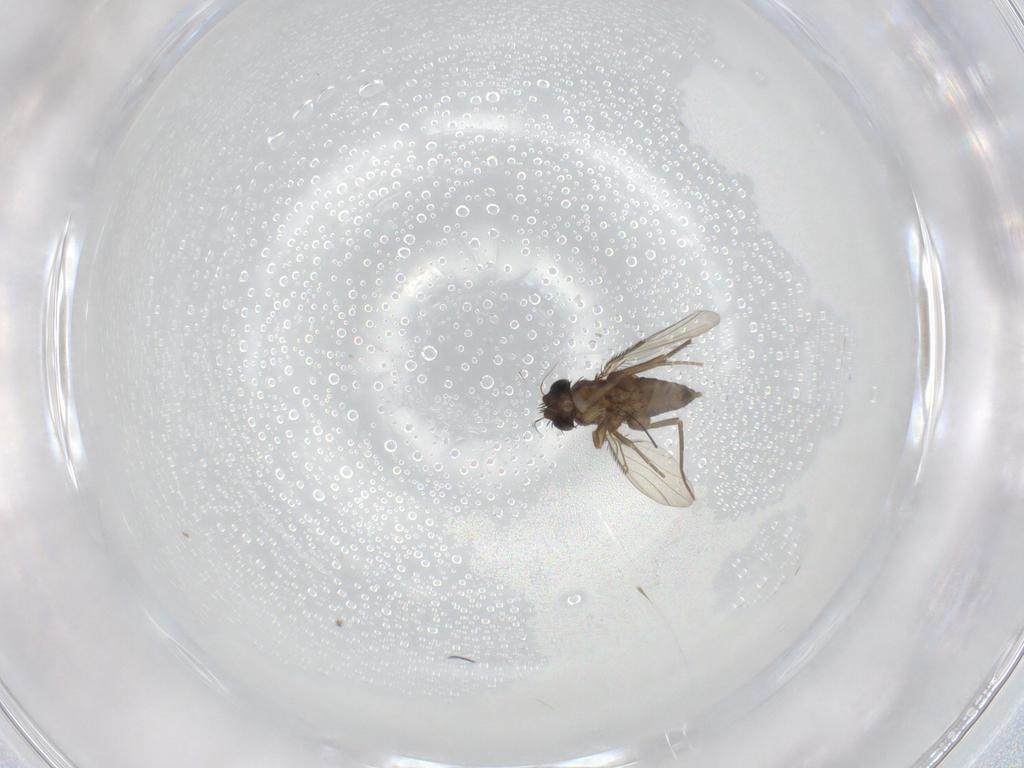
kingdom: Animalia
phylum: Arthropoda
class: Insecta
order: Diptera
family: Phoridae
